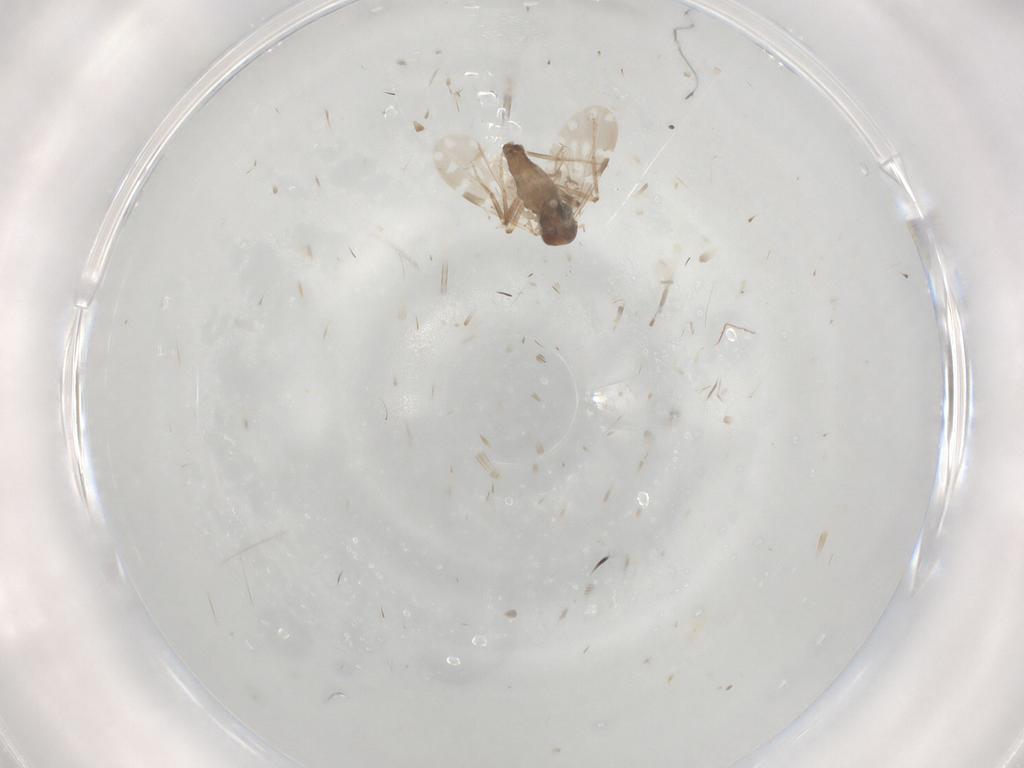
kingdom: Animalia
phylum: Arthropoda
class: Insecta
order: Diptera
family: Ceratopogonidae
